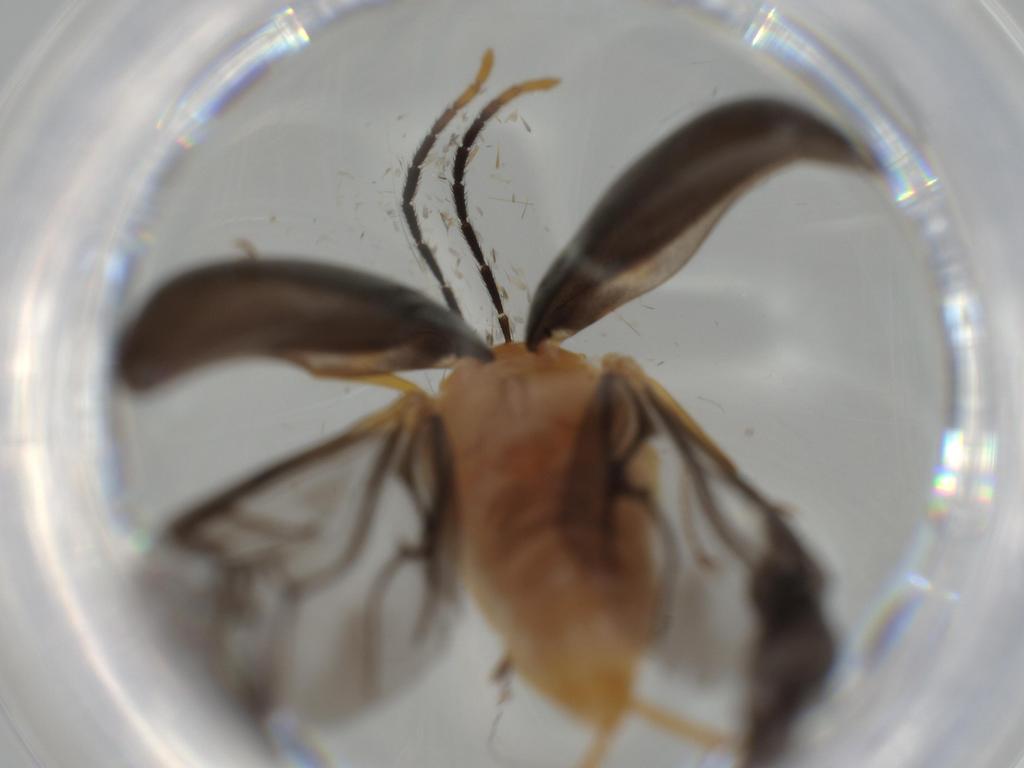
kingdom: Animalia
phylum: Arthropoda
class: Insecta
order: Coleoptera
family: Chrysomelidae
